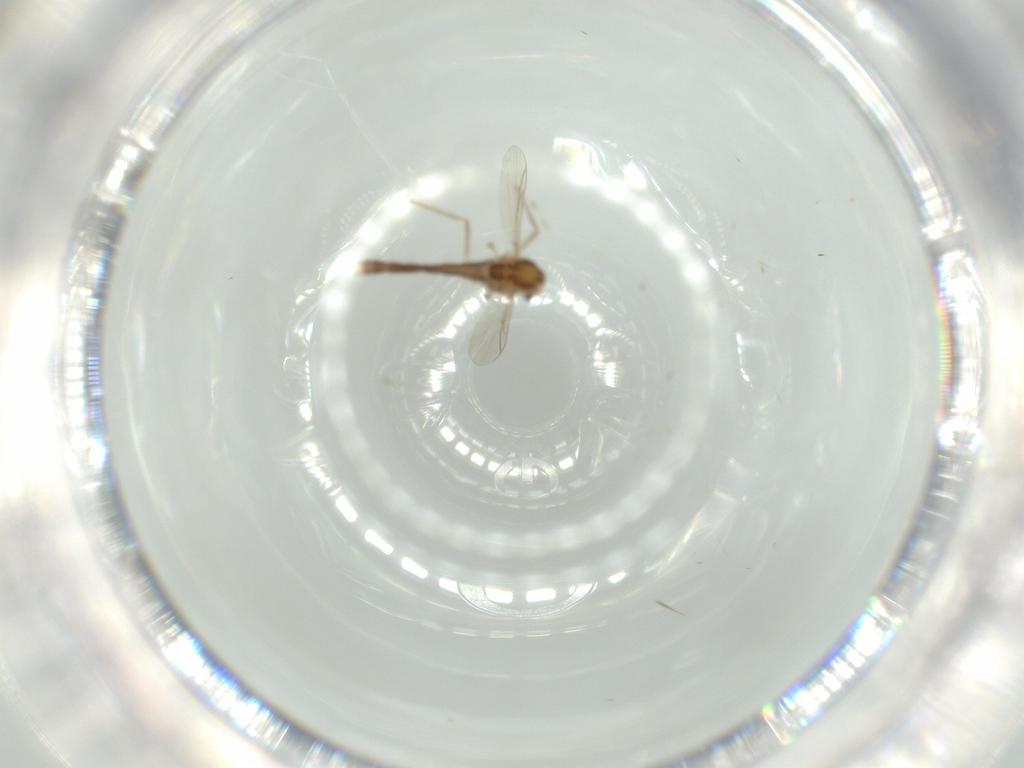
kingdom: Animalia
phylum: Arthropoda
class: Insecta
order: Diptera
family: Chironomidae
